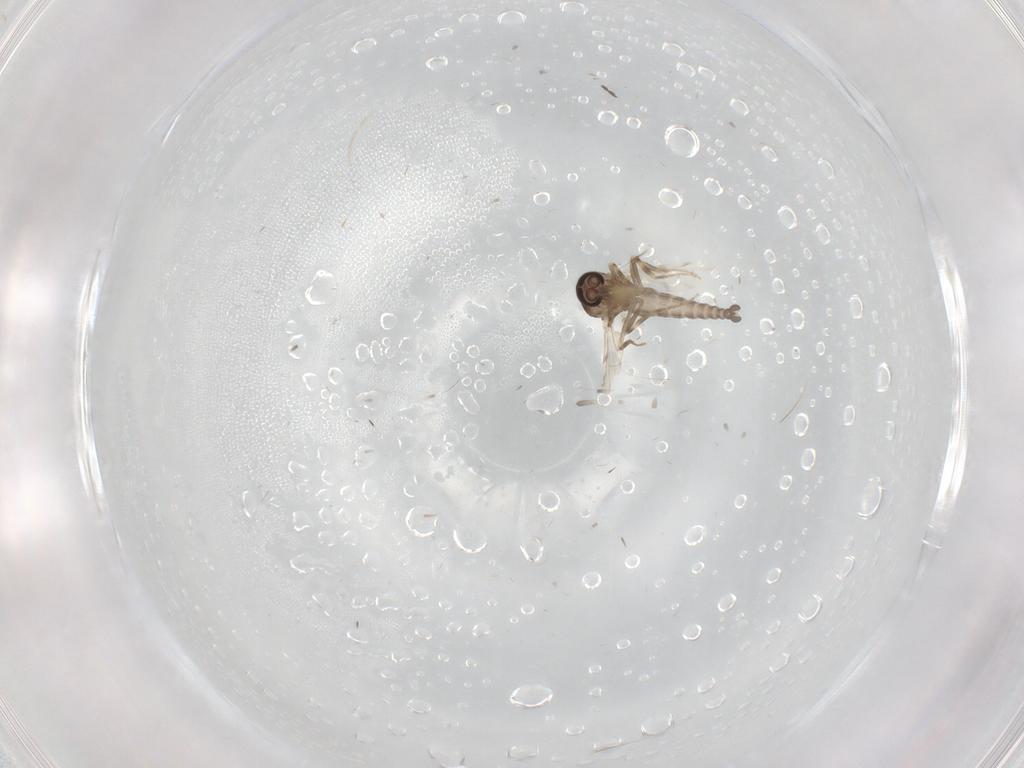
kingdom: Animalia
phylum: Arthropoda
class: Insecta
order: Diptera
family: Ceratopogonidae
